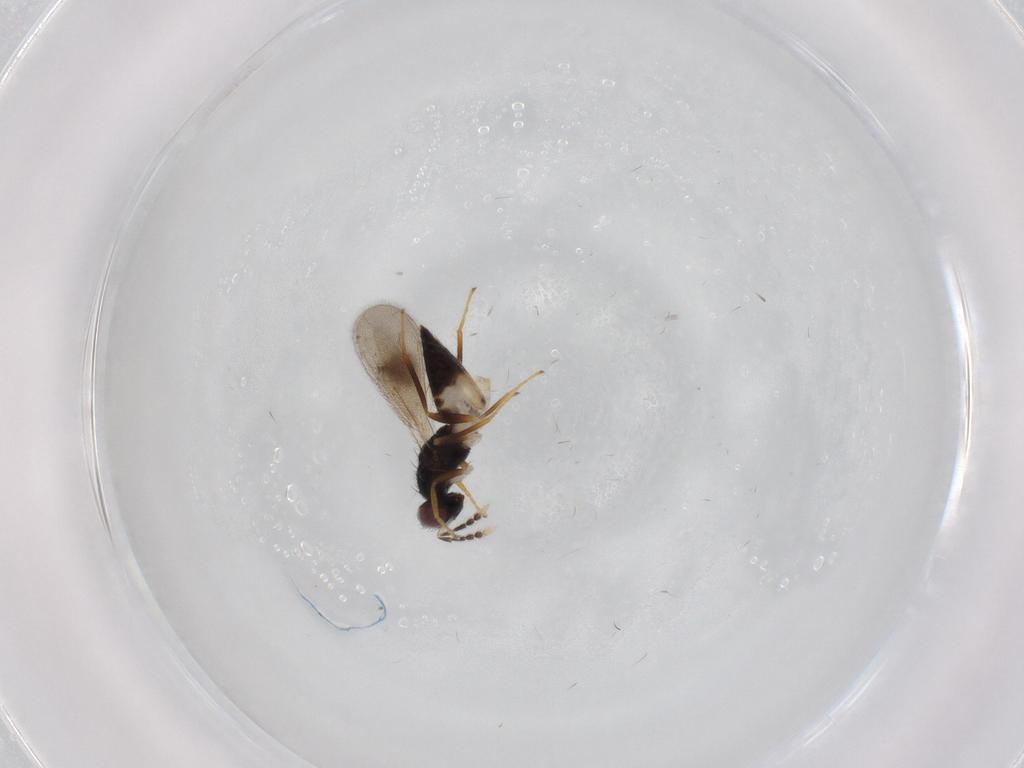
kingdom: Animalia
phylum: Arthropoda
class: Insecta
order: Hymenoptera
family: Eulophidae
